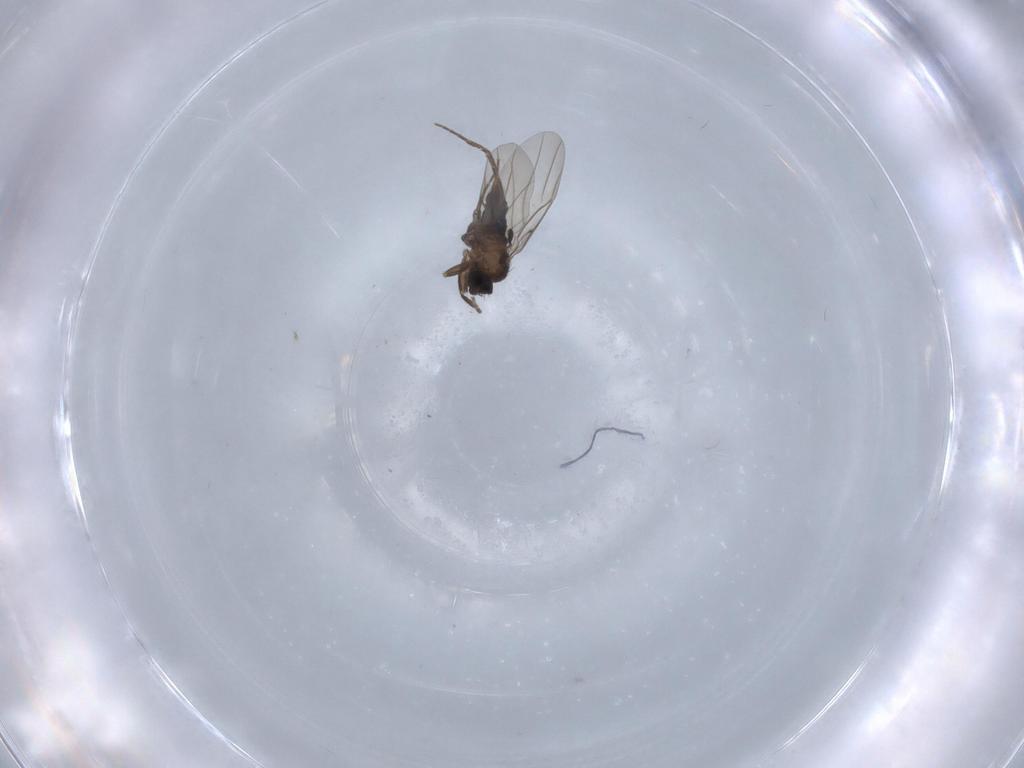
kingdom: Animalia
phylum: Arthropoda
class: Insecta
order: Diptera
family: Phoridae
